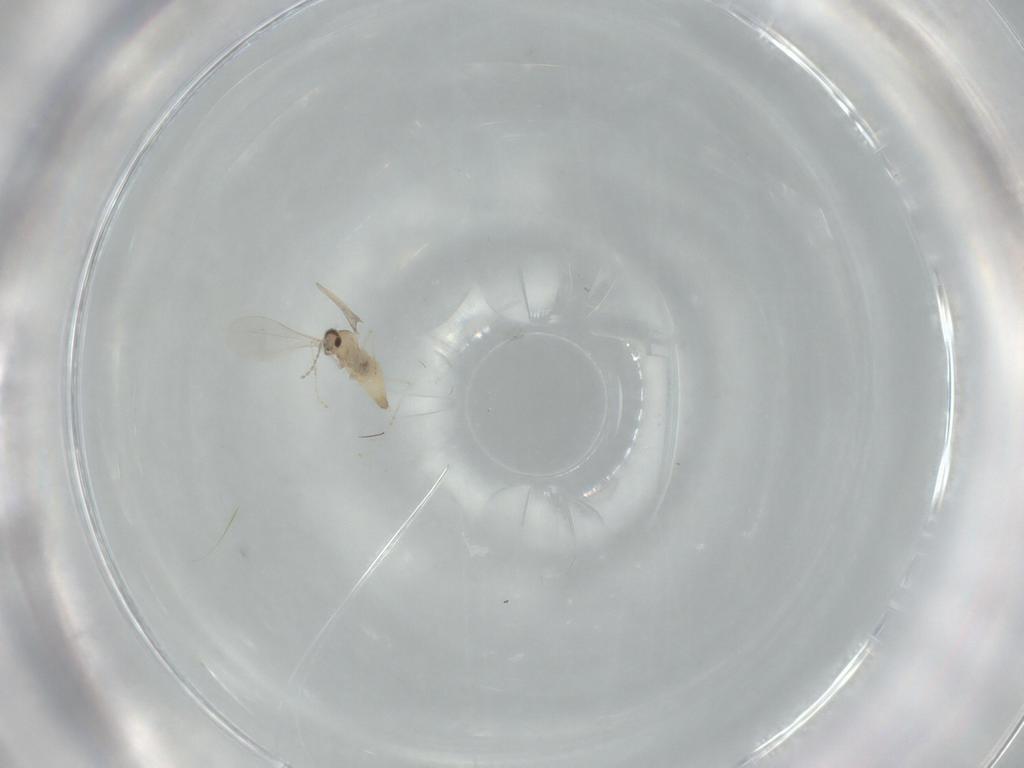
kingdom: Animalia
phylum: Arthropoda
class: Insecta
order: Diptera
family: Cecidomyiidae
